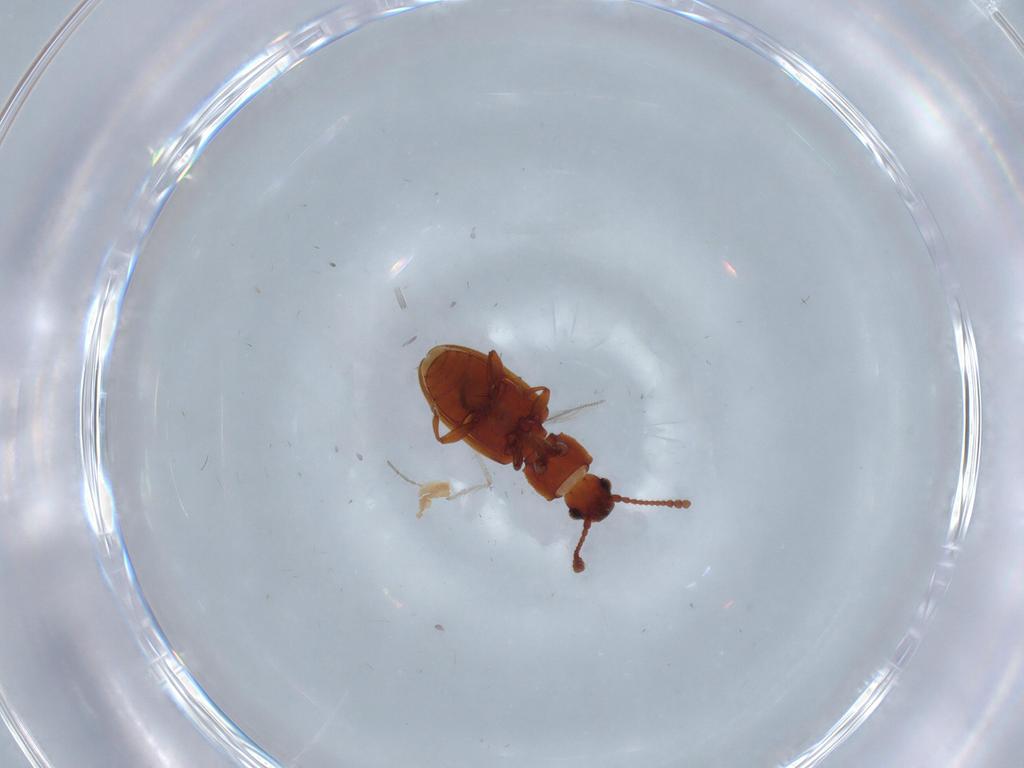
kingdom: Animalia
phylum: Arthropoda
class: Insecta
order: Coleoptera
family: Silvanidae
